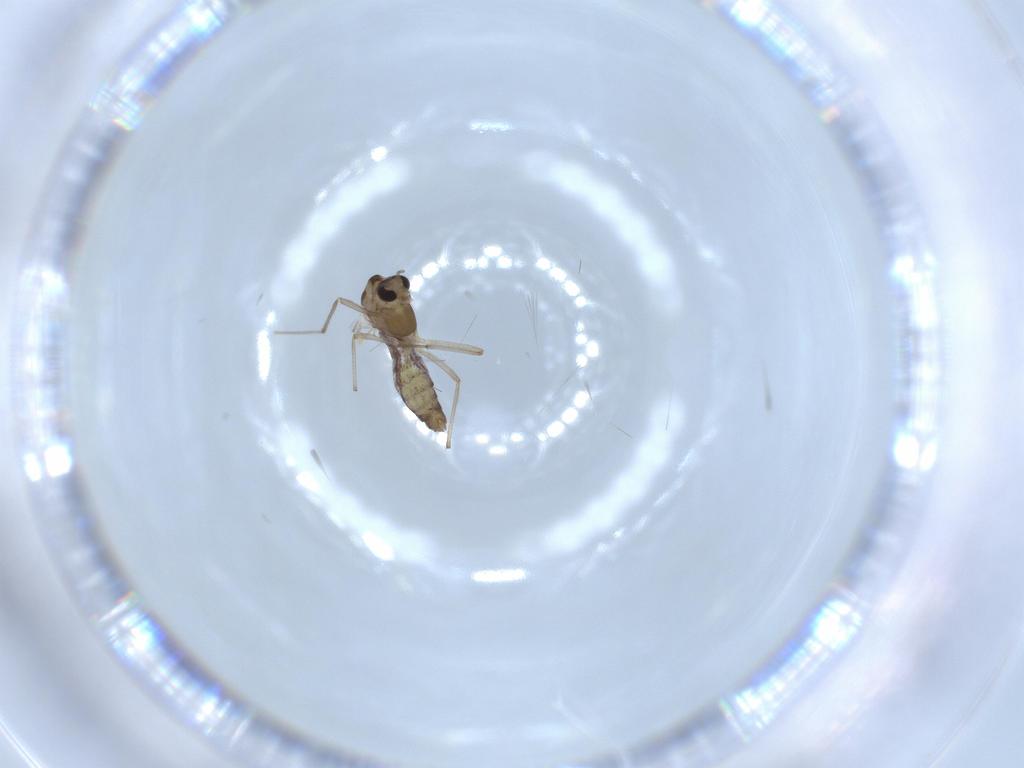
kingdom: Animalia
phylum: Arthropoda
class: Insecta
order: Diptera
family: Chironomidae
